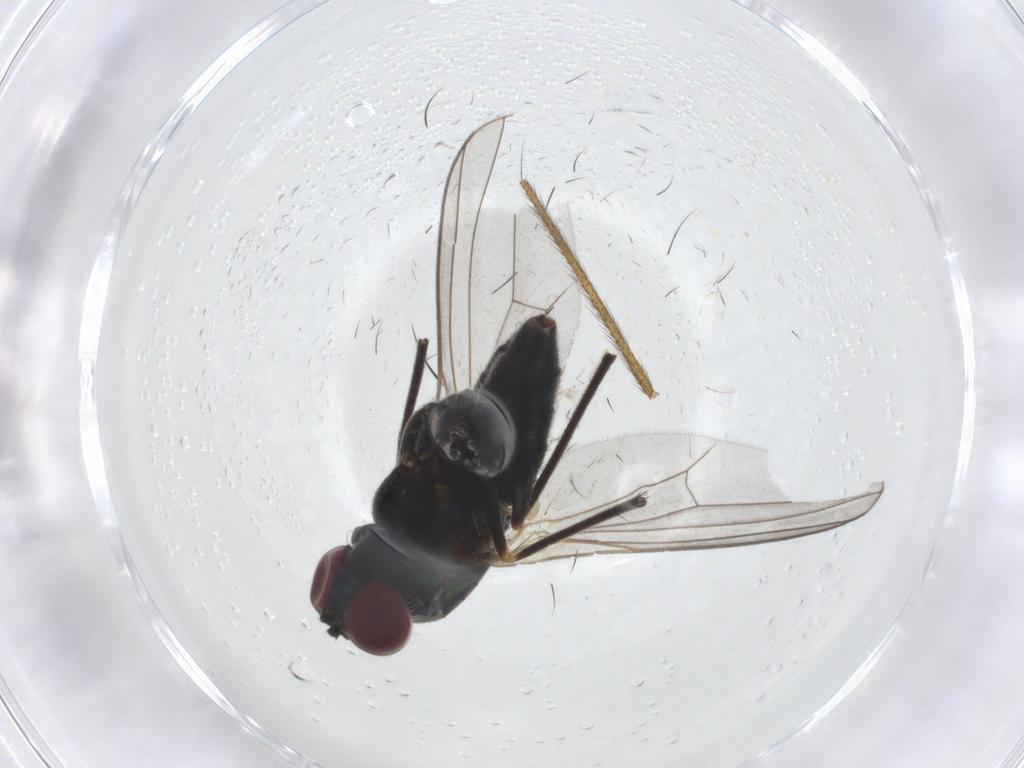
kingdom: Animalia
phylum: Arthropoda
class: Insecta
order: Diptera
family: Dolichopodidae
